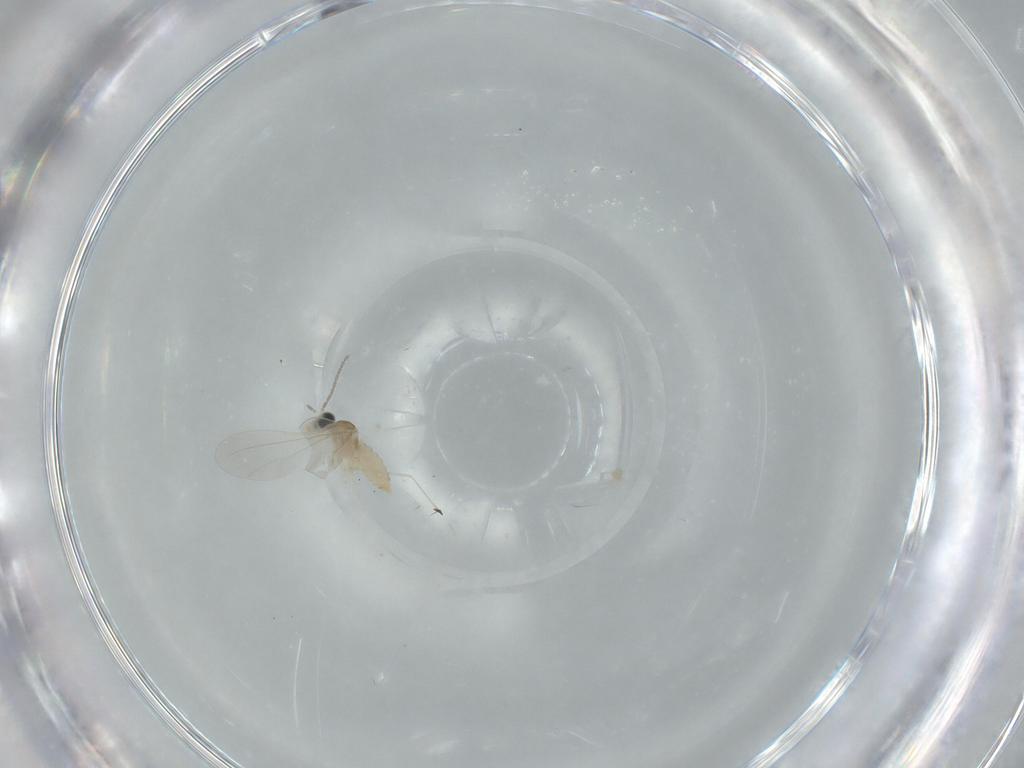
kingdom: Animalia
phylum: Arthropoda
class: Insecta
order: Diptera
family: Cecidomyiidae
